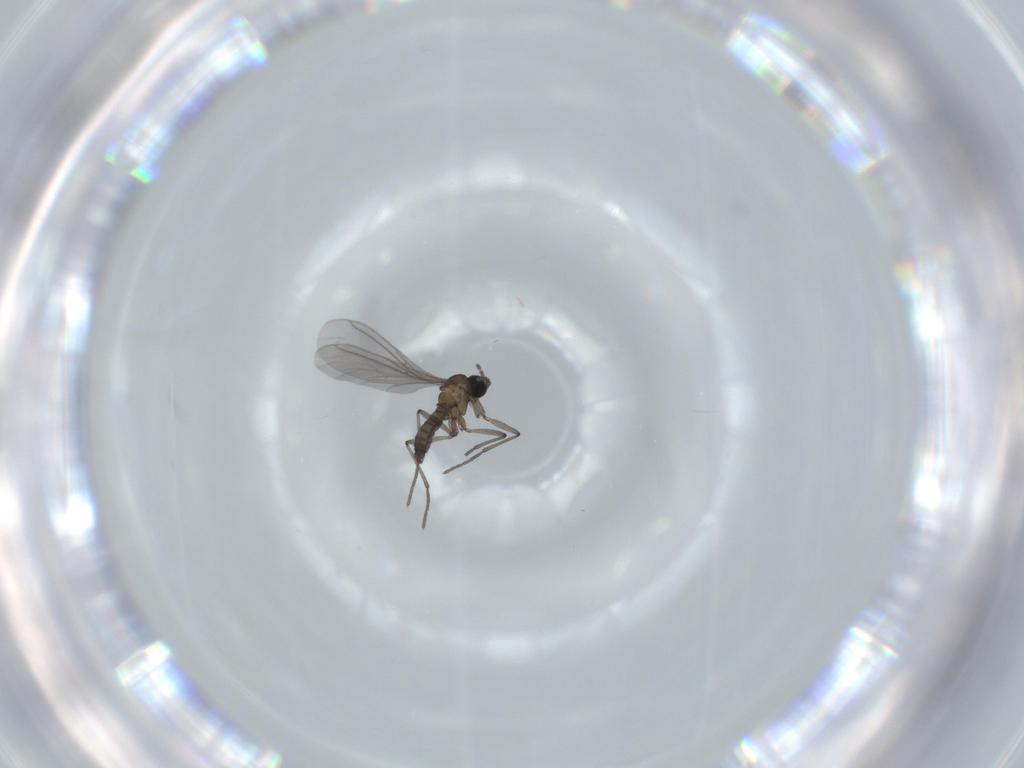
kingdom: Animalia
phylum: Arthropoda
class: Insecta
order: Diptera
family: Sciaridae
